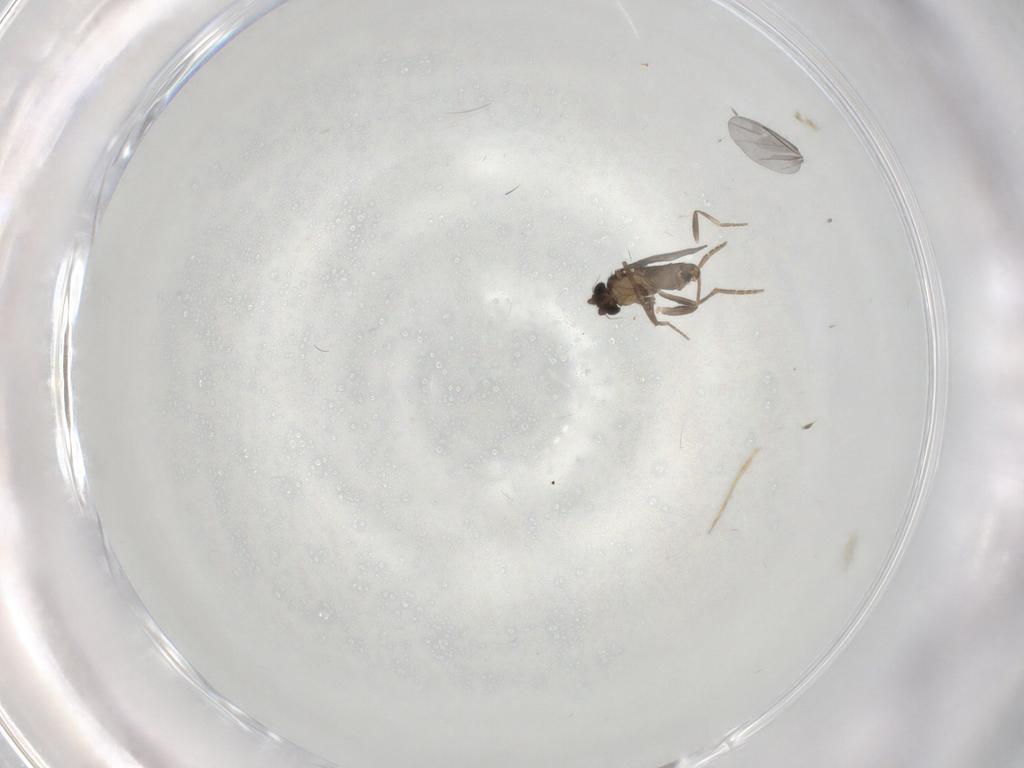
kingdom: Animalia
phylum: Arthropoda
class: Insecta
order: Diptera
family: Chironomidae
